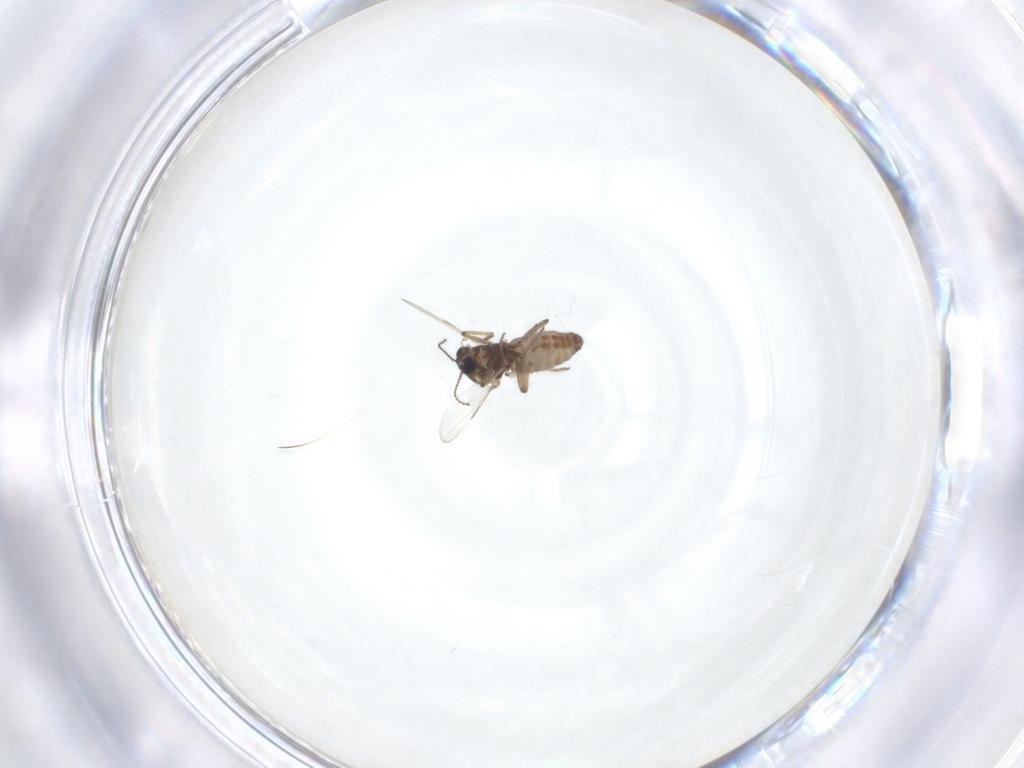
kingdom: Animalia
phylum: Arthropoda
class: Insecta
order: Diptera
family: Ceratopogonidae
